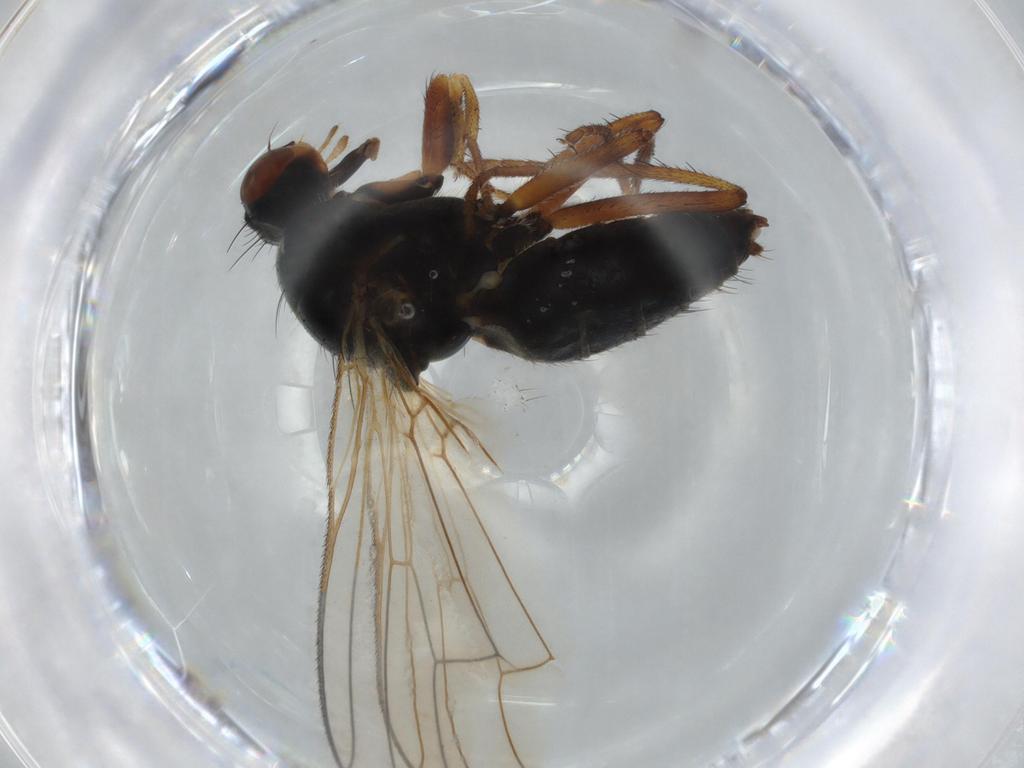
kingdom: Animalia
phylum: Arthropoda
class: Insecta
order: Diptera
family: Scathophagidae
